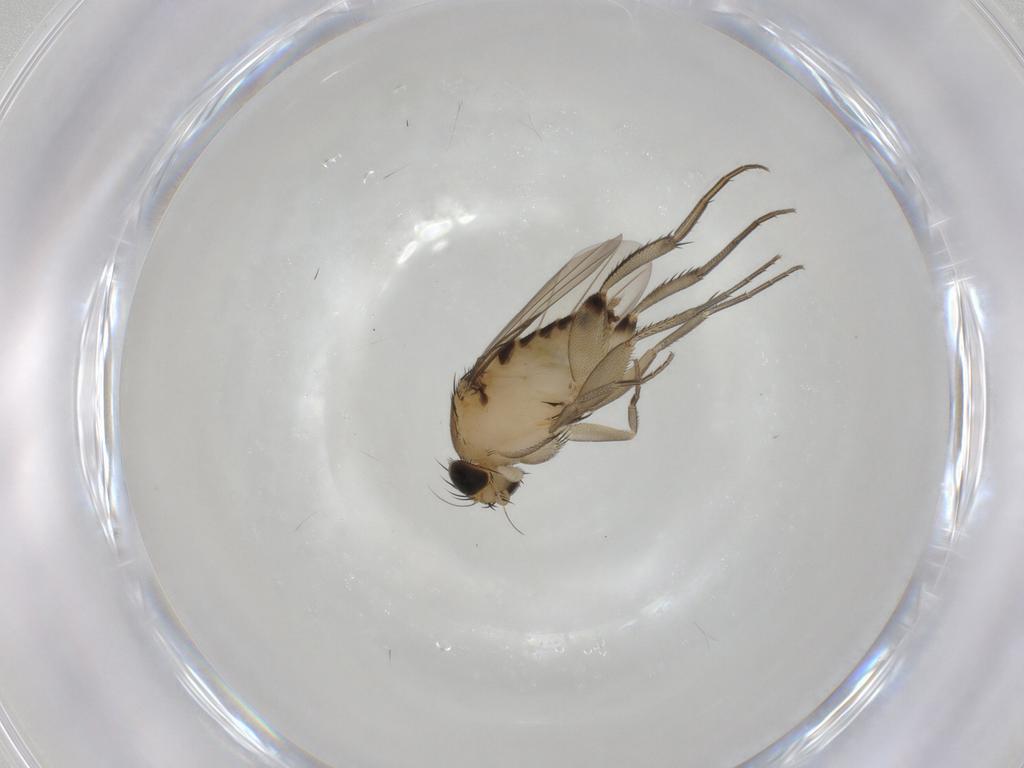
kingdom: Animalia
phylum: Arthropoda
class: Insecta
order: Diptera
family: Phoridae
